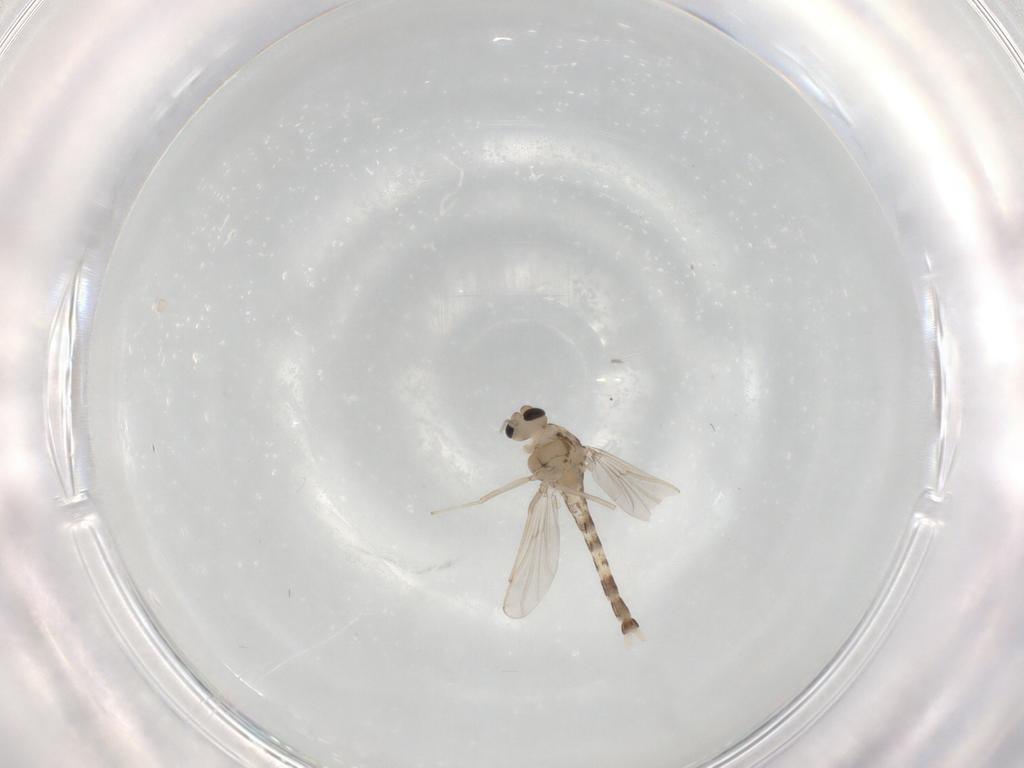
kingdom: Animalia
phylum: Arthropoda
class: Insecta
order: Diptera
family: Chironomidae
